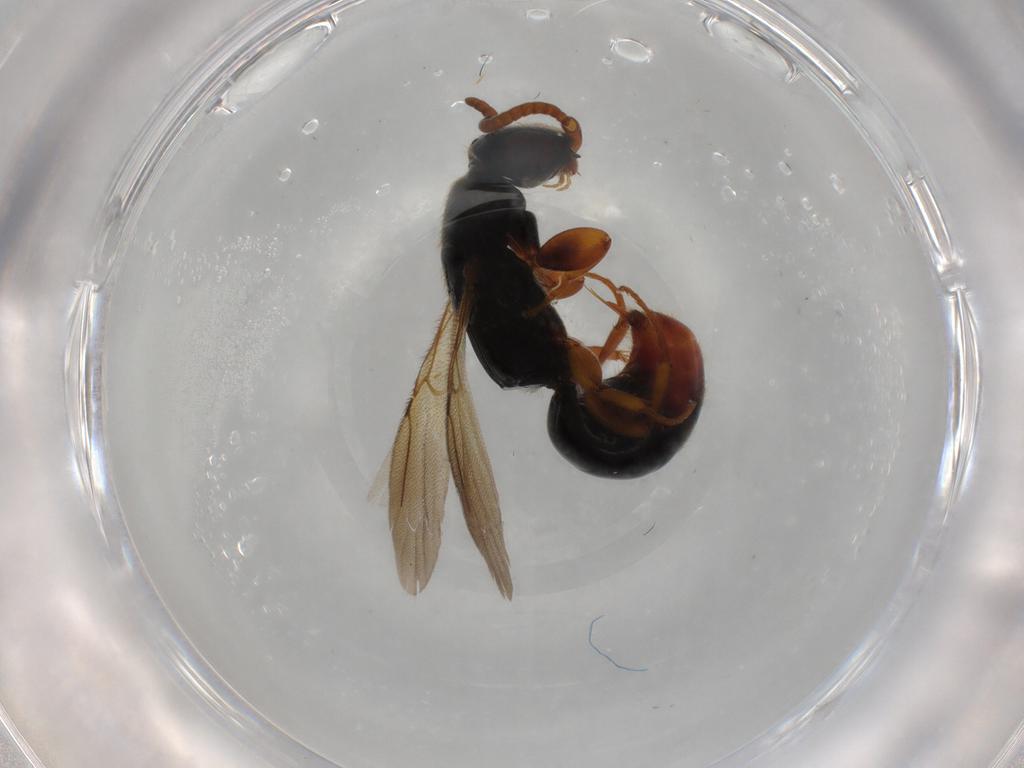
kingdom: Animalia
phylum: Arthropoda
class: Insecta
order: Hymenoptera
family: Bethylidae
